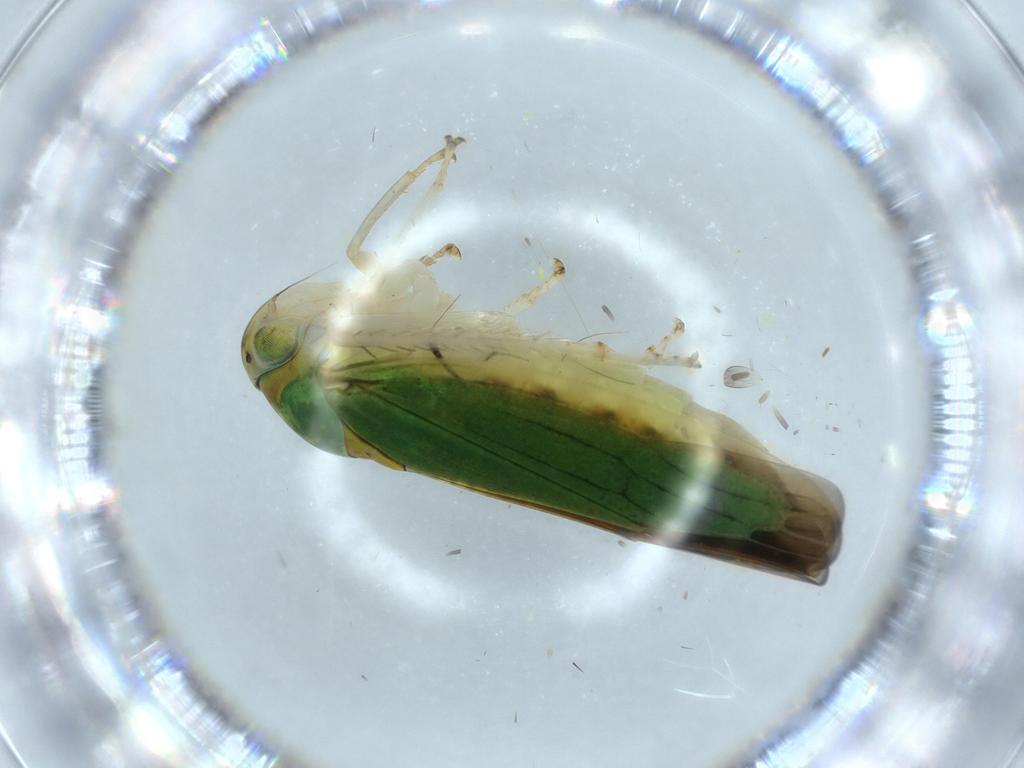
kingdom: Animalia
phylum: Arthropoda
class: Insecta
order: Hemiptera
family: Cicadellidae
